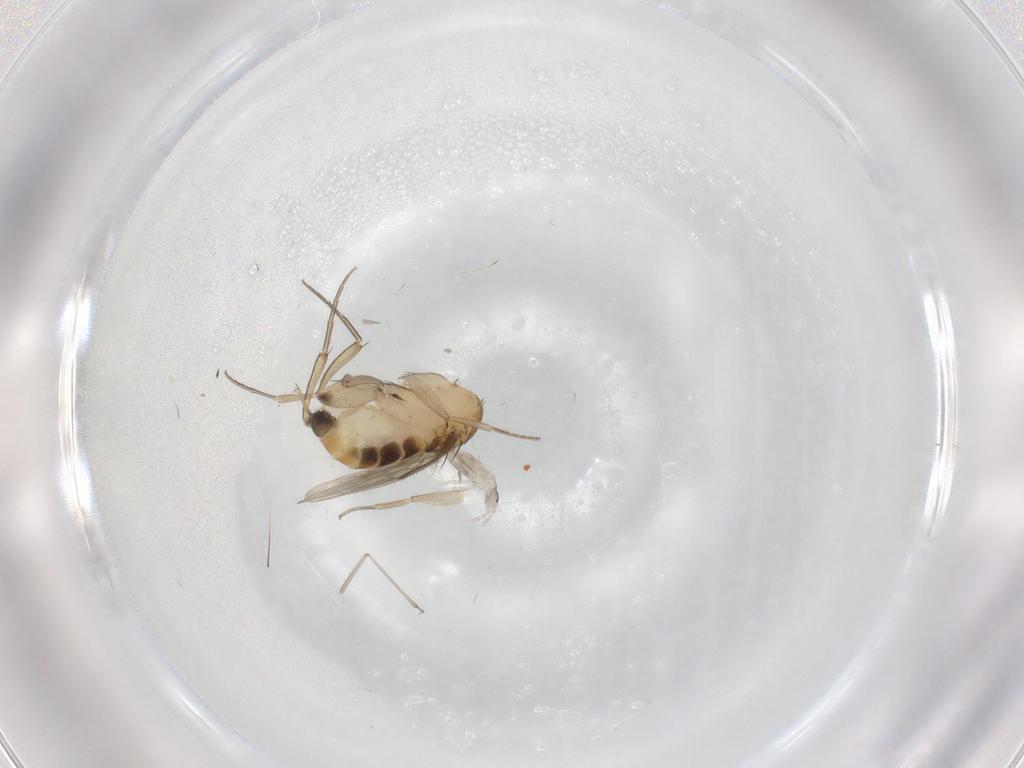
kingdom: Animalia
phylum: Arthropoda
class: Insecta
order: Diptera
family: Phoridae
